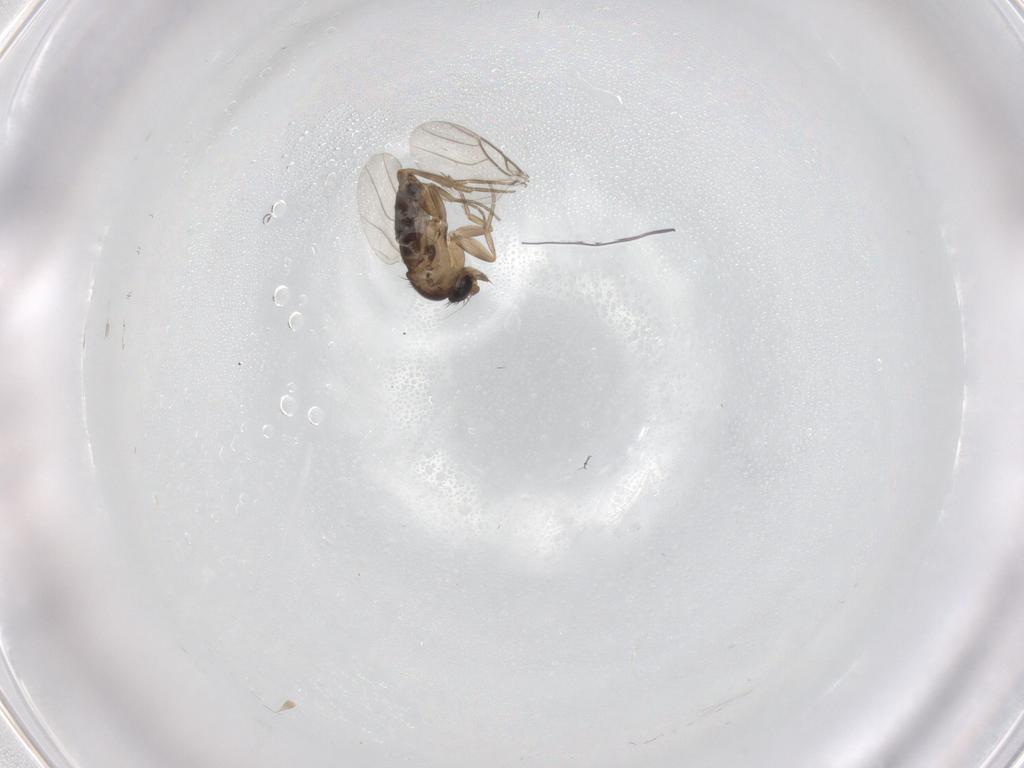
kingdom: Animalia
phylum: Arthropoda
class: Insecta
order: Diptera
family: Phoridae
